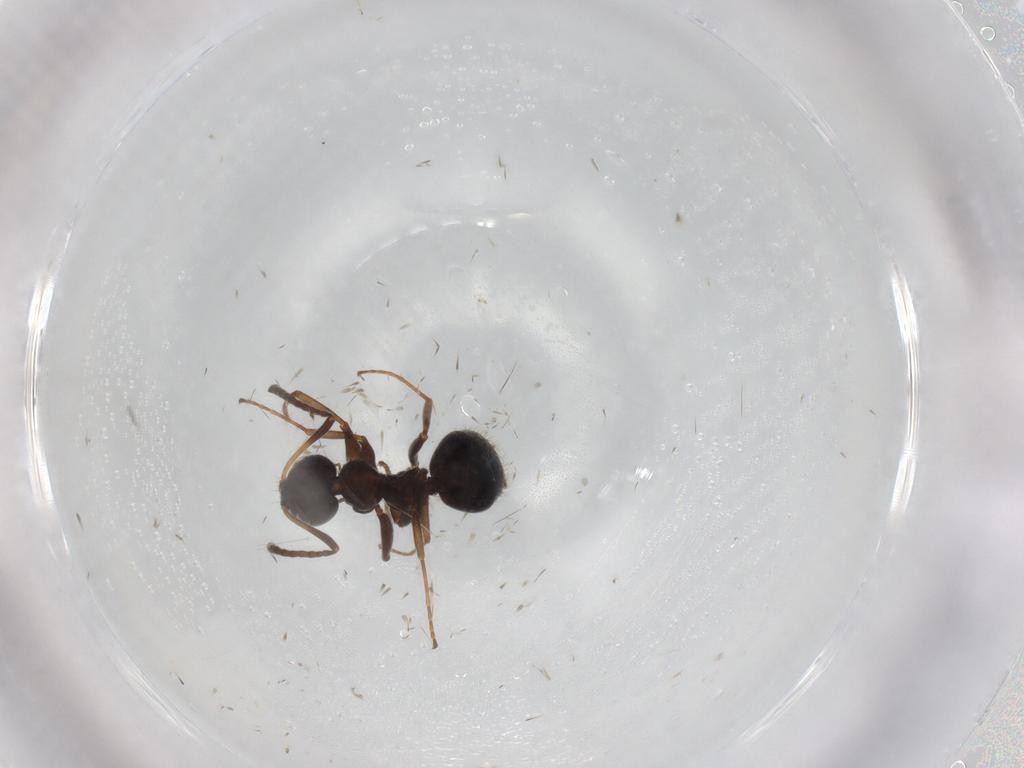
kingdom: Animalia
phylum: Arthropoda
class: Insecta
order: Hymenoptera
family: Formicidae
